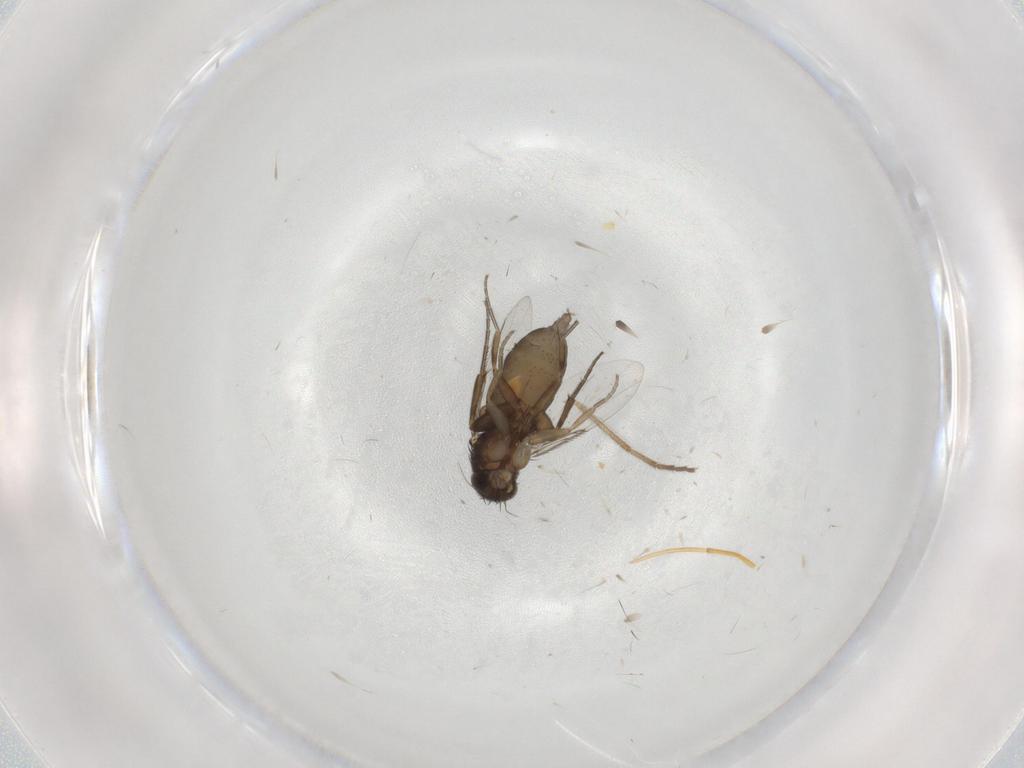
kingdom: Animalia
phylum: Arthropoda
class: Insecta
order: Diptera
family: Phoridae
